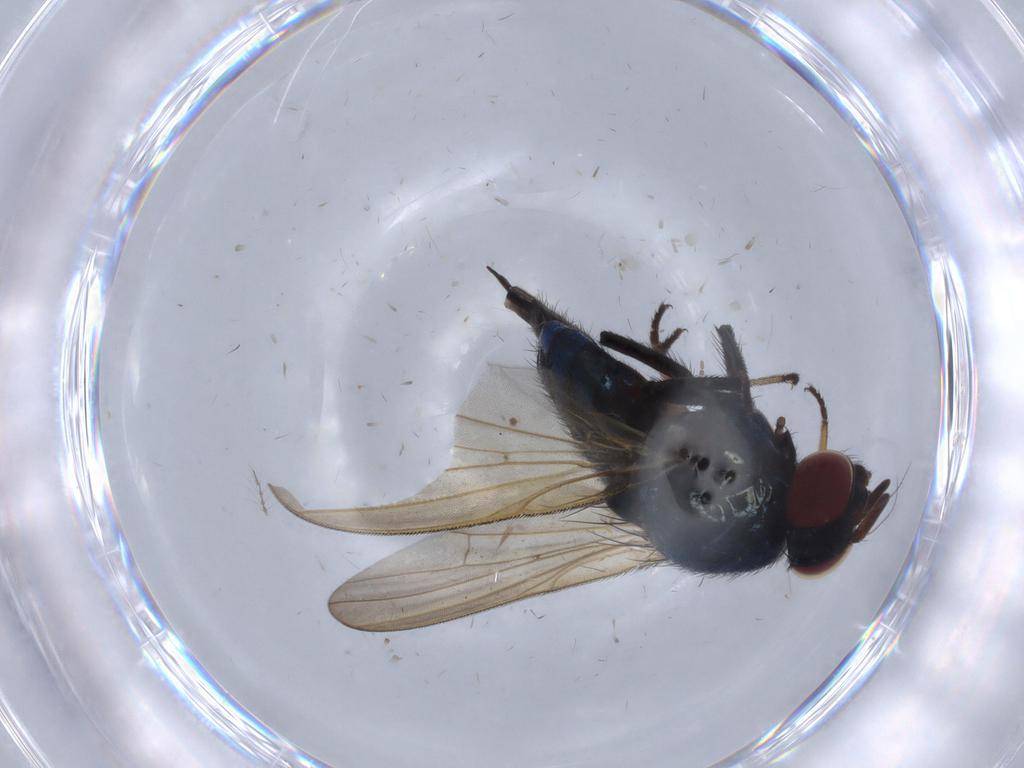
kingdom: Animalia
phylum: Arthropoda
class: Insecta
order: Diptera
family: Lonchaeidae
